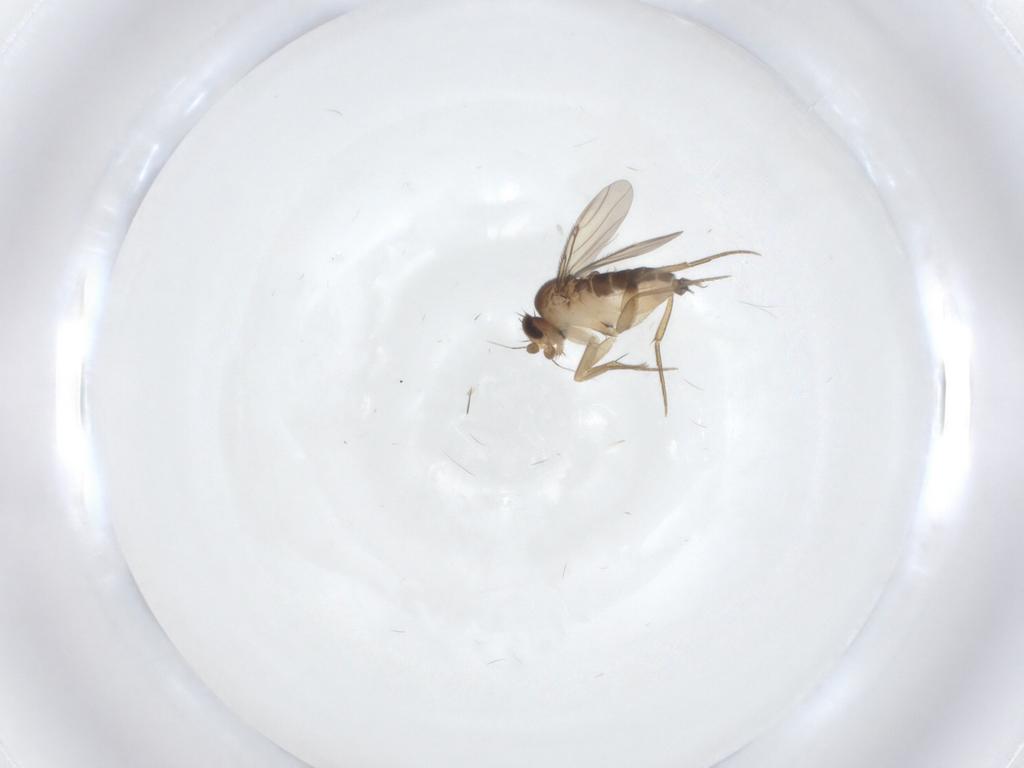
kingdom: Animalia
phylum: Arthropoda
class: Insecta
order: Diptera
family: Phoridae
